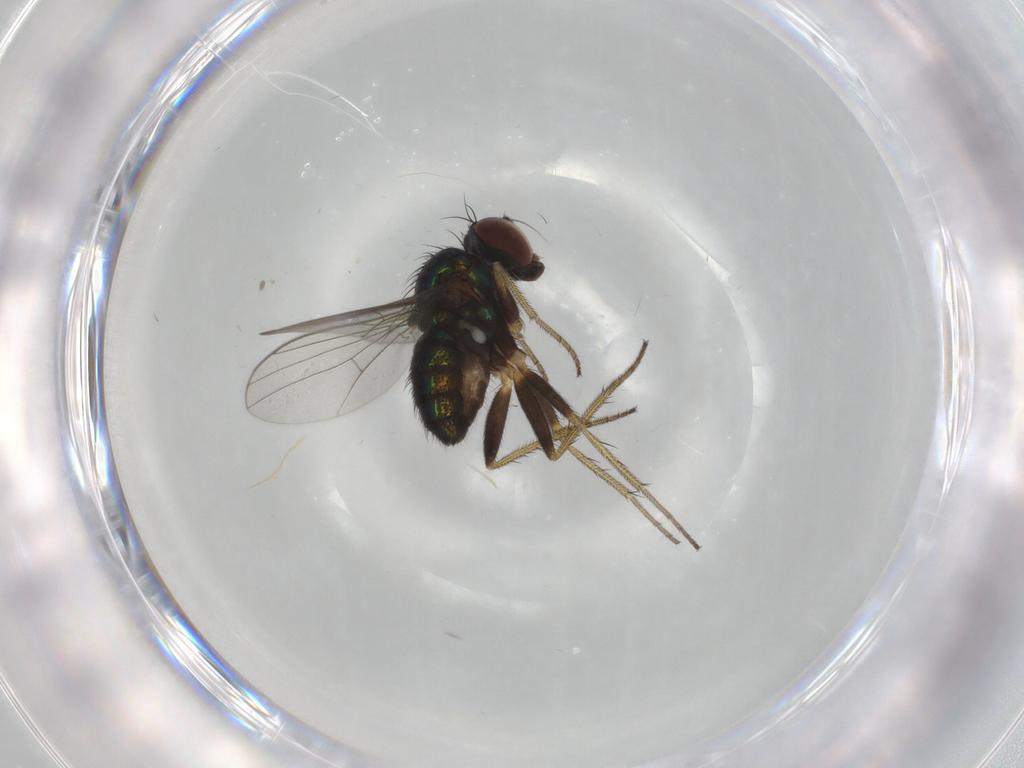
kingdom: Animalia
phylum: Arthropoda
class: Insecta
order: Diptera
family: Dolichopodidae
